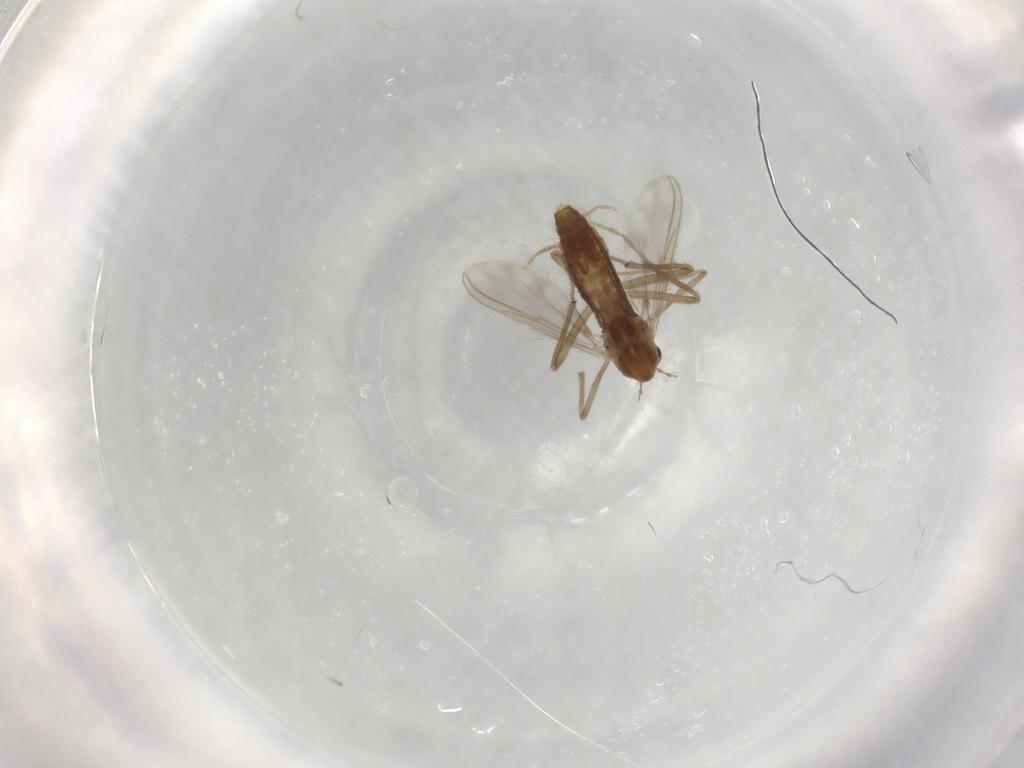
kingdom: Animalia
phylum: Arthropoda
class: Insecta
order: Diptera
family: Chironomidae
